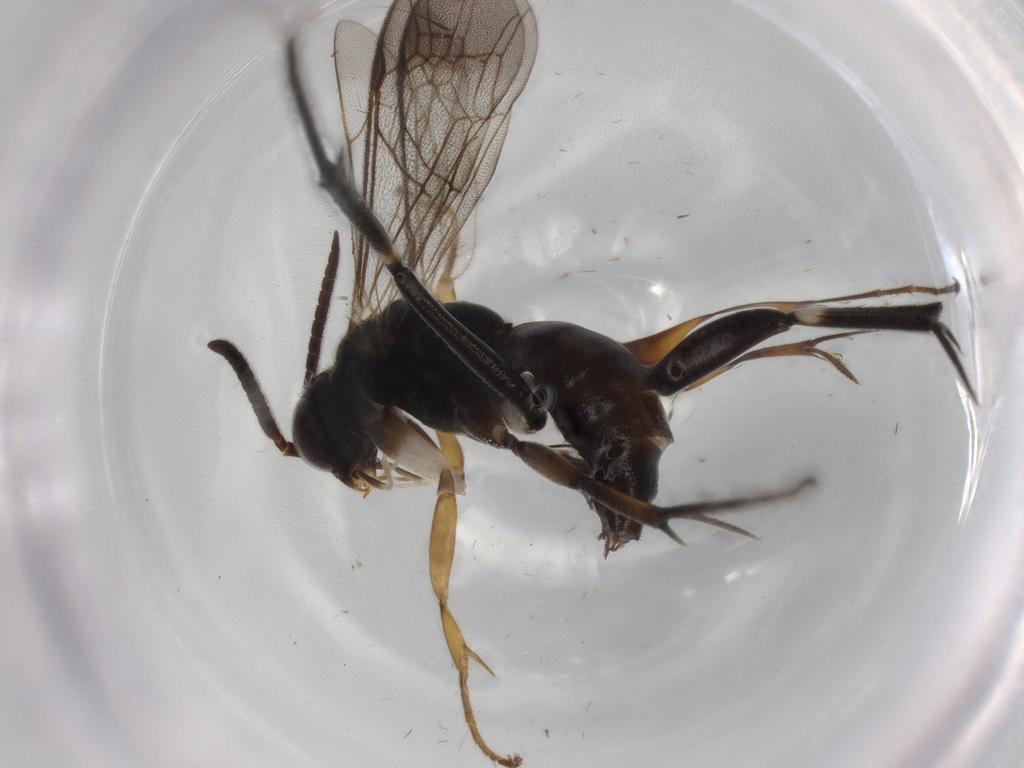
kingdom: Animalia
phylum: Arthropoda
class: Insecta
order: Hymenoptera
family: Pompilidae
